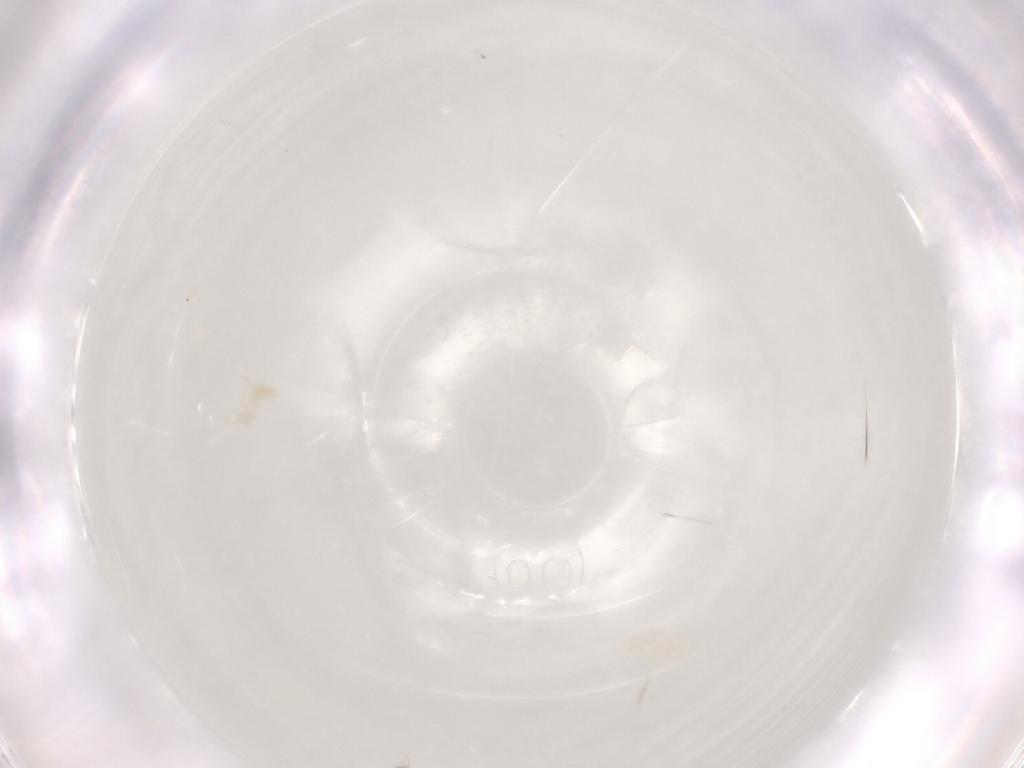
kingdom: Animalia
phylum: Arthropoda
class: Arachnida
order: Trombidiformes
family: Anystidae
